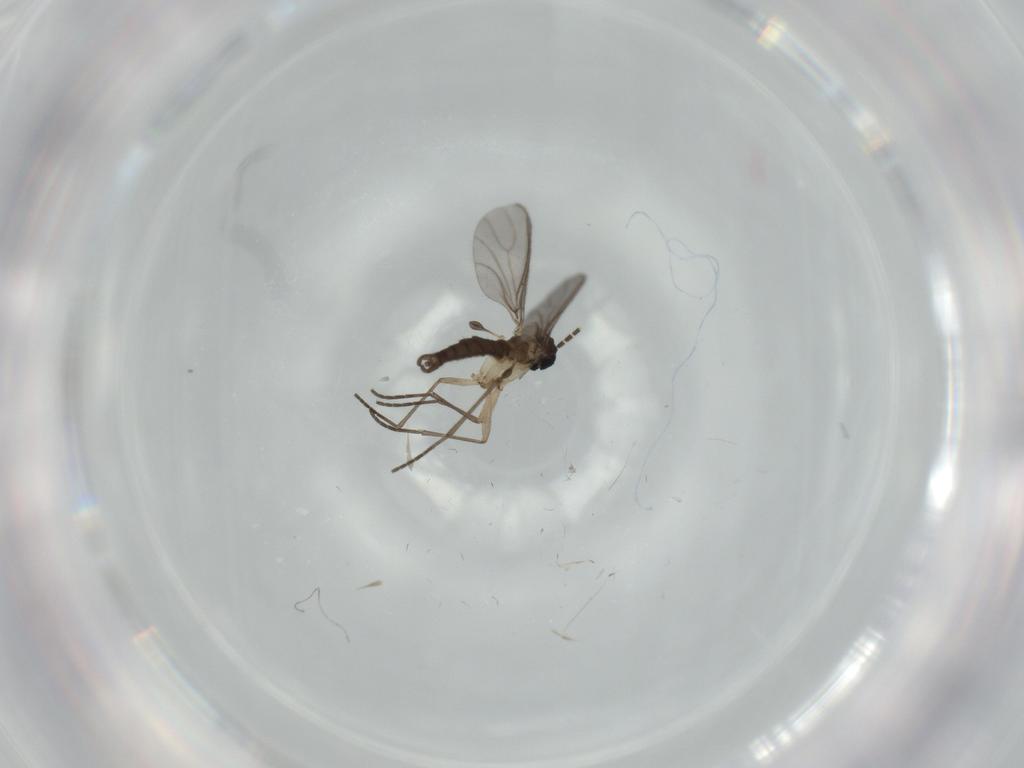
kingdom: Animalia
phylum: Arthropoda
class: Insecta
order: Diptera
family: Sciaridae
